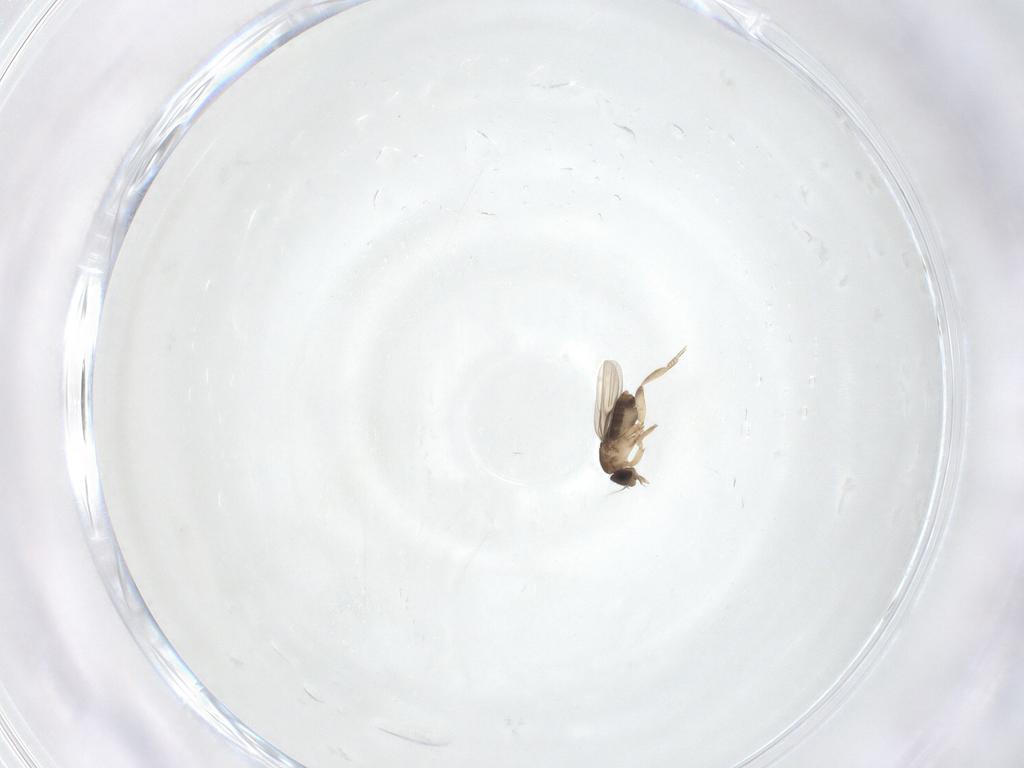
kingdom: Animalia
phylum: Arthropoda
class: Insecta
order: Diptera
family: Phoridae
